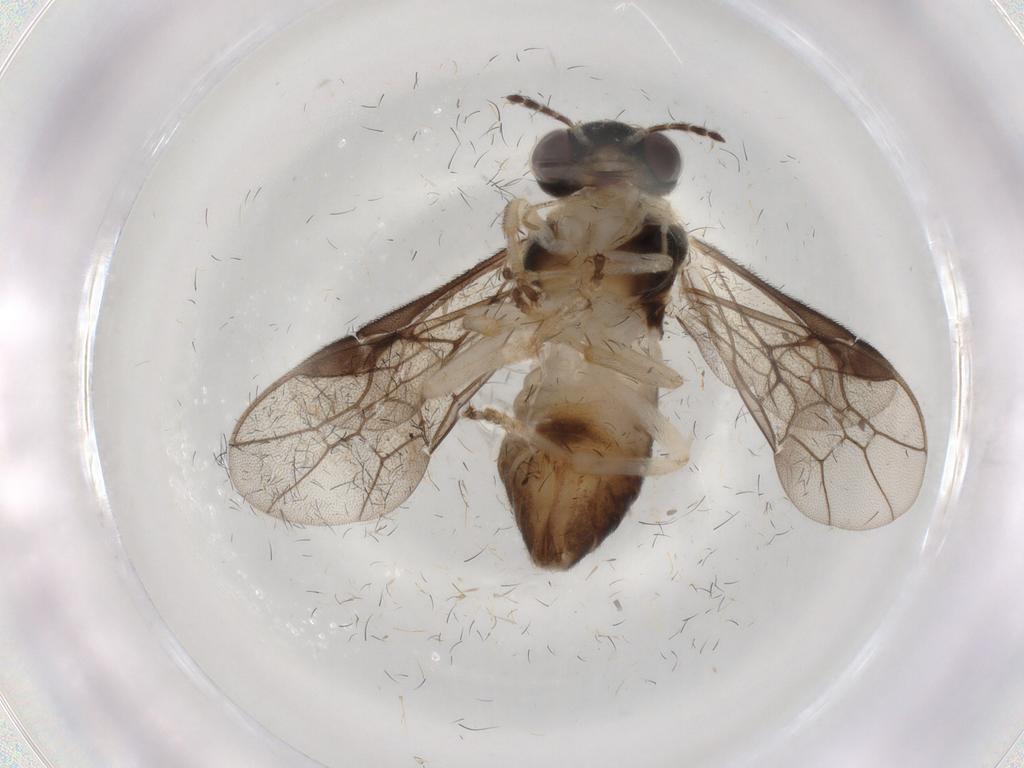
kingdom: Animalia
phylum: Arthropoda
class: Insecta
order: Hymenoptera
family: Bethylidae
